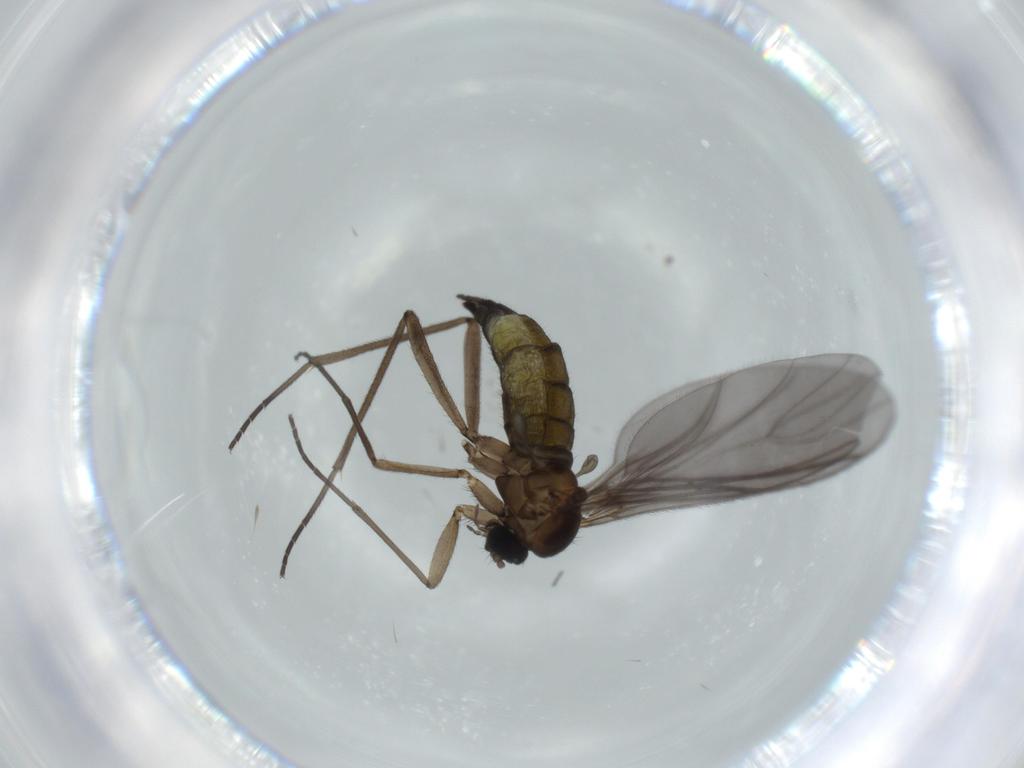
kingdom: Animalia
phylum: Arthropoda
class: Insecta
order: Diptera
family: Sciaridae
